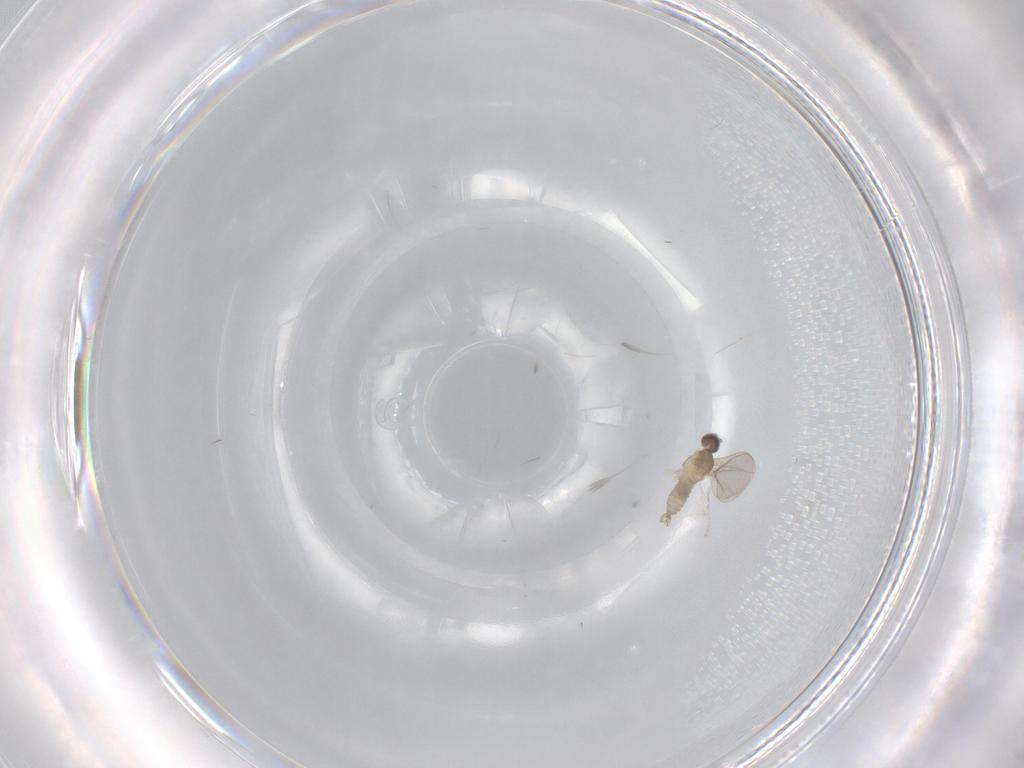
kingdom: Animalia
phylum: Arthropoda
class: Insecta
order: Diptera
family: Cecidomyiidae
